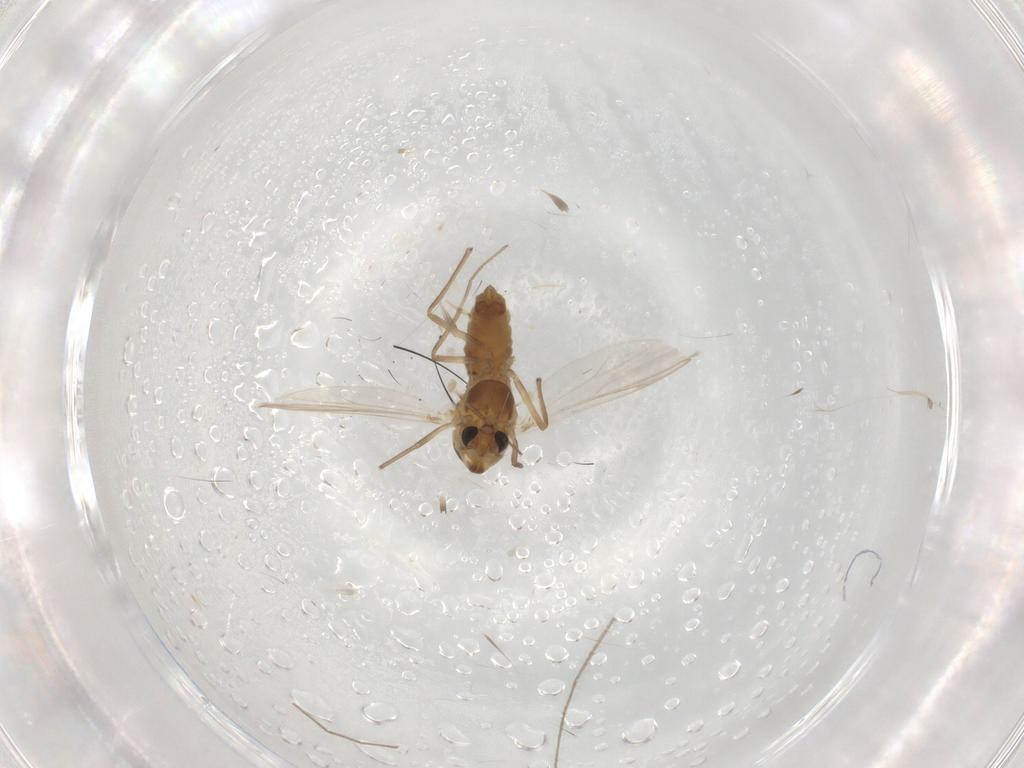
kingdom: Animalia
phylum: Arthropoda
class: Insecta
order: Diptera
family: Chironomidae
